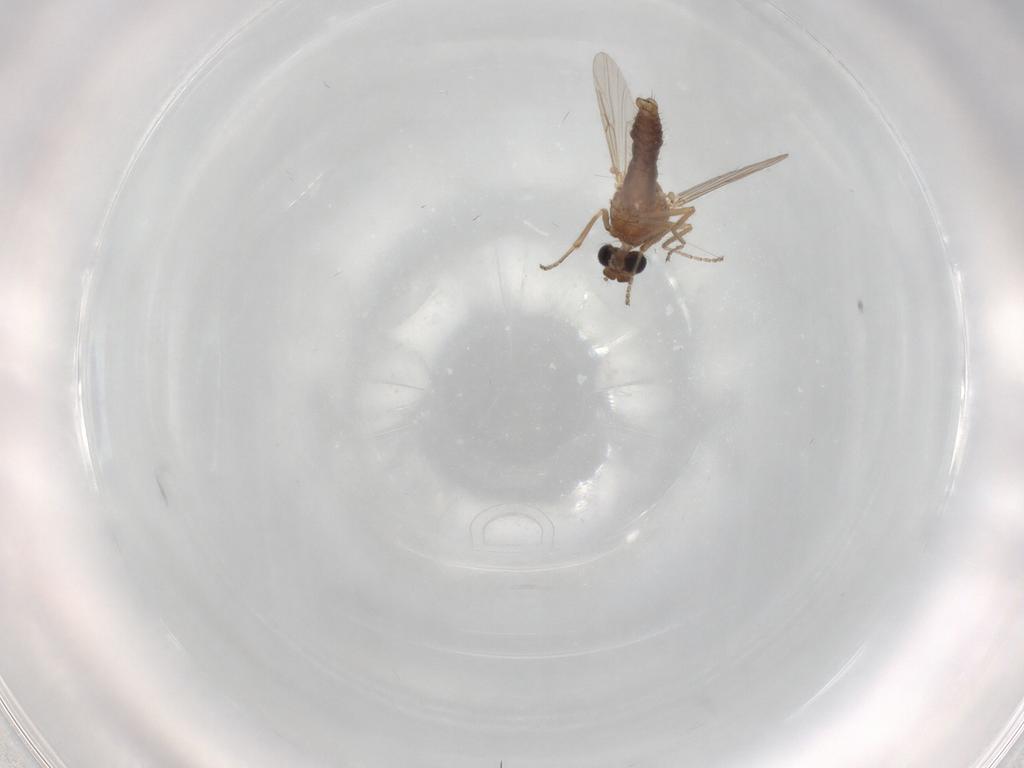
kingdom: Animalia
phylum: Arthropoda
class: Insecta
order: Diptera
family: Ceratopogonidae
